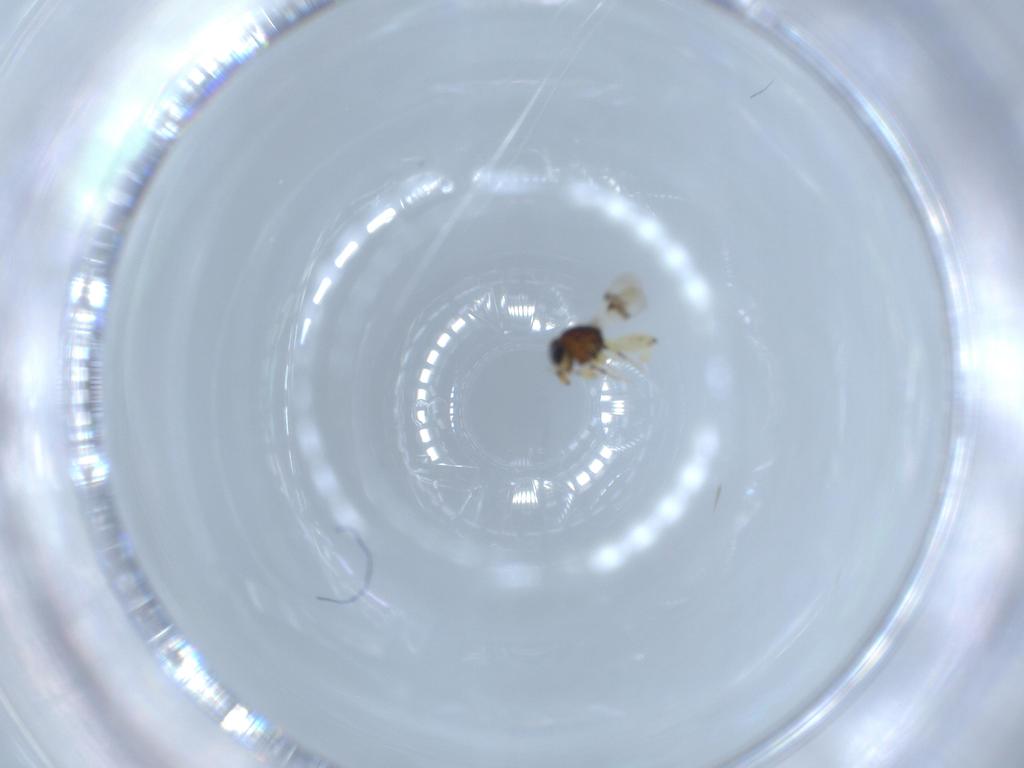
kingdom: Animalia
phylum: Arthropoda
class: Insecta
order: Hymenoptera
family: Scelionidae
